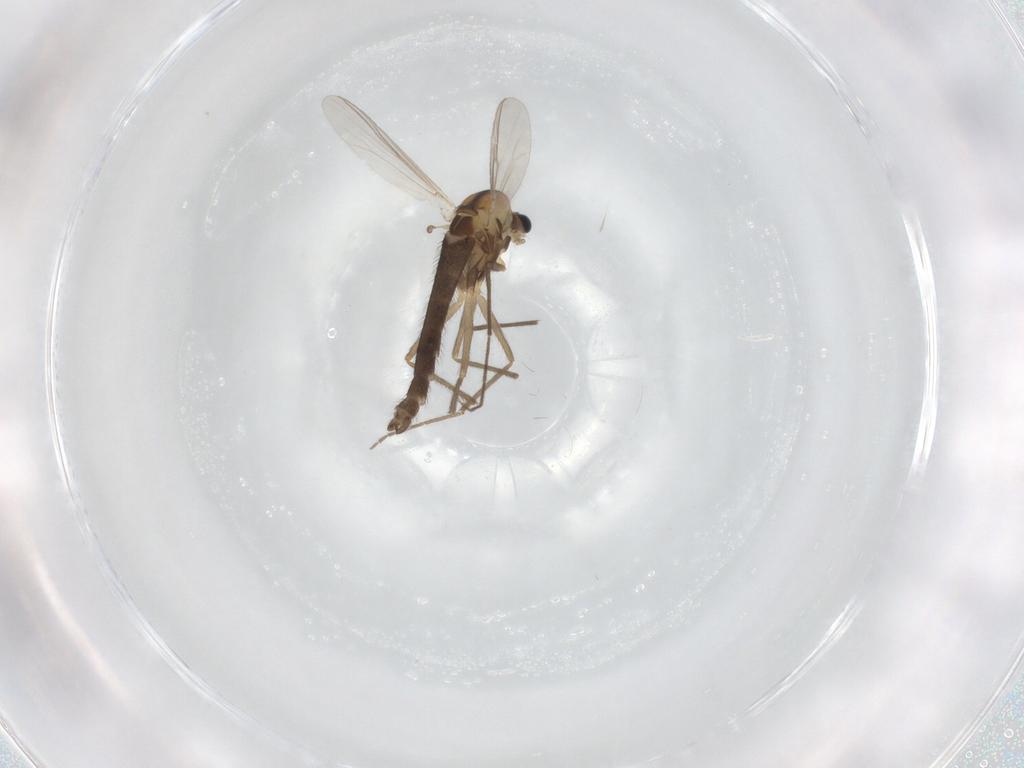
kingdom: Animalia
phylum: Arthropoda
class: Insecta
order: Diptera
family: Chironomidae
